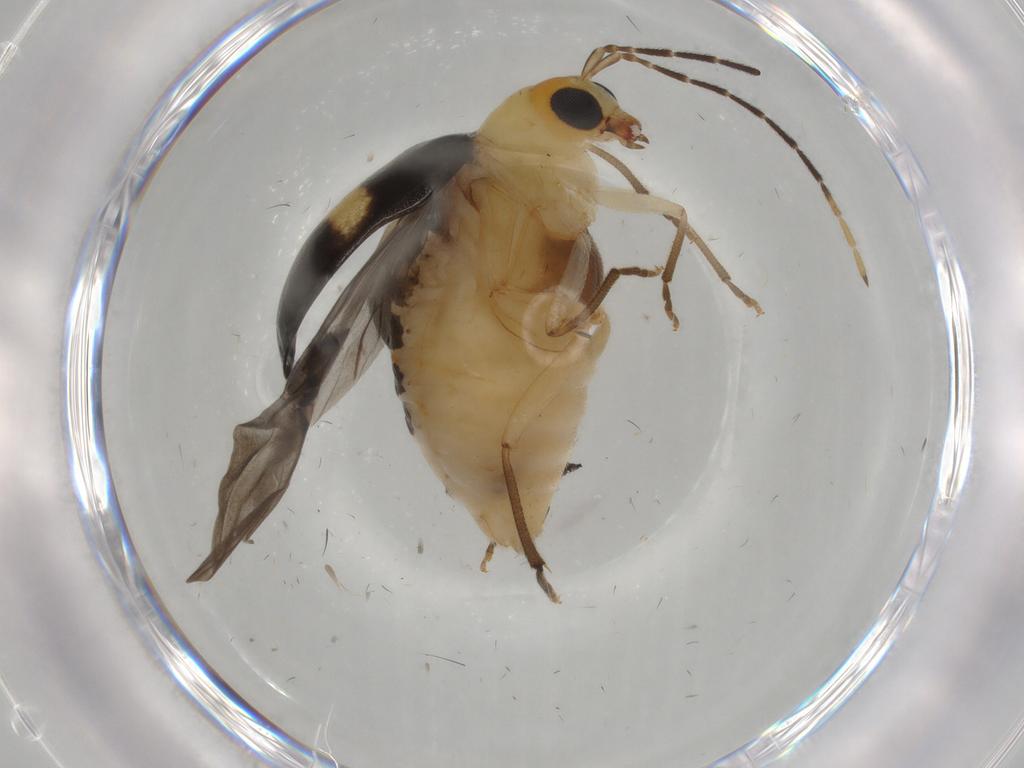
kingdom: Animalia
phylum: Arthropoda
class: Insecta
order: Coleoptera
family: Chrysomelidae
